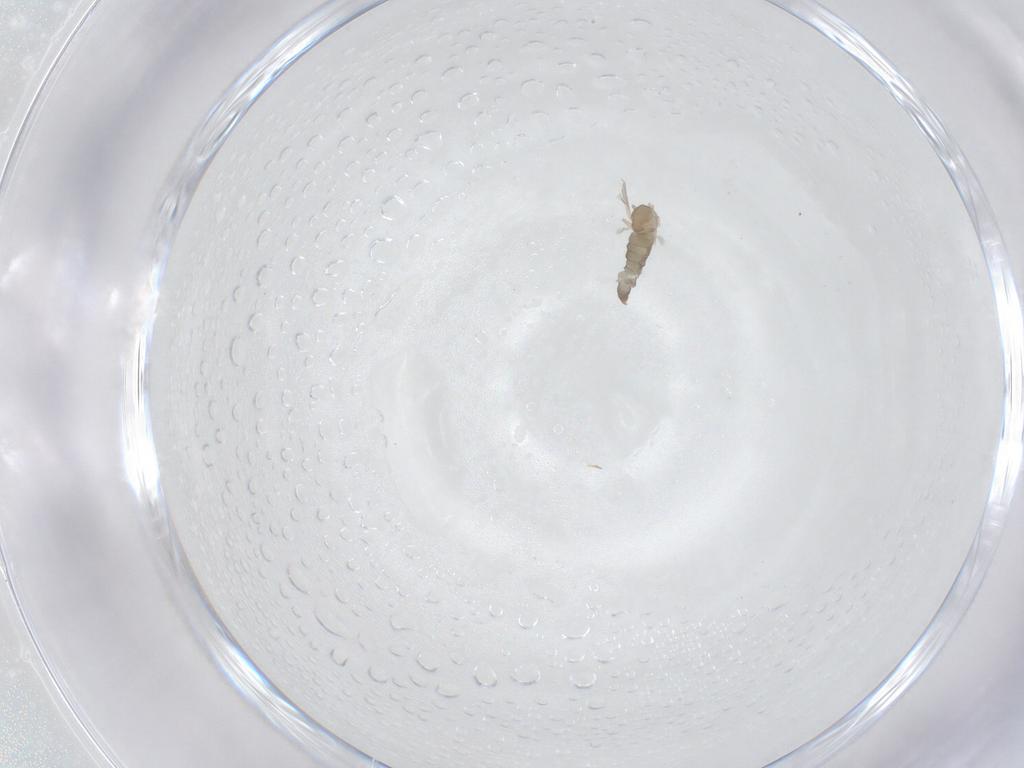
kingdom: Animalia
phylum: Arthropoda
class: Insecta
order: Diptera
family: Cecidomyiidae
